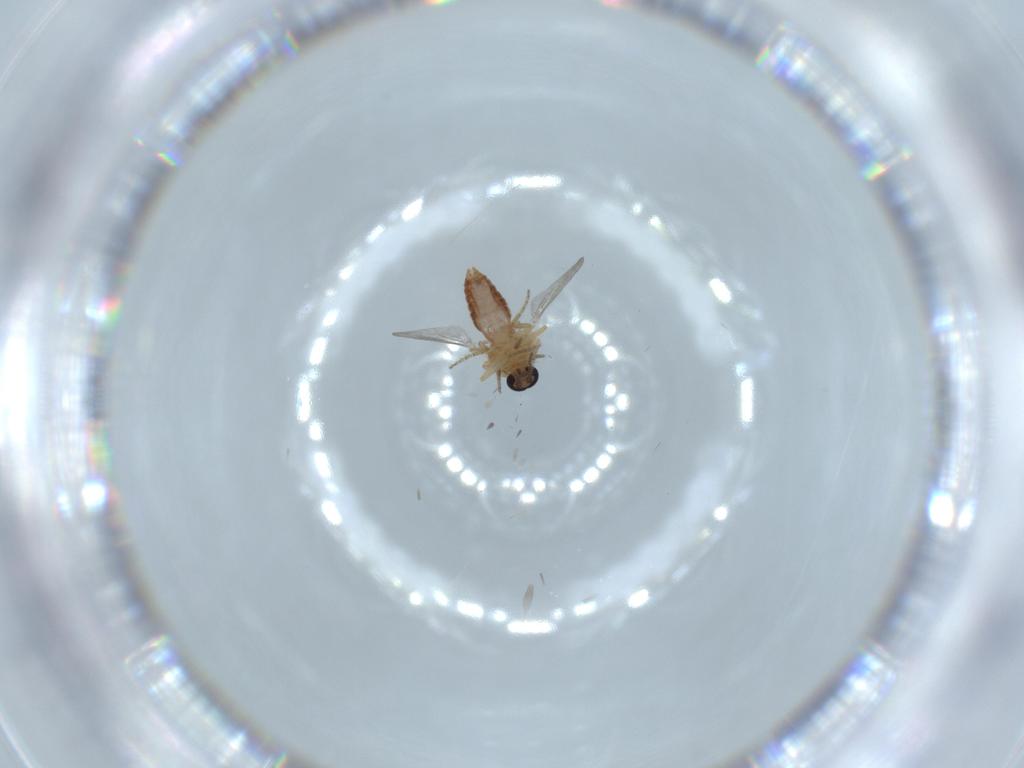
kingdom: Animalia
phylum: Arthropoda
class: Insecta
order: Diptera
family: Ceratopogonidae
